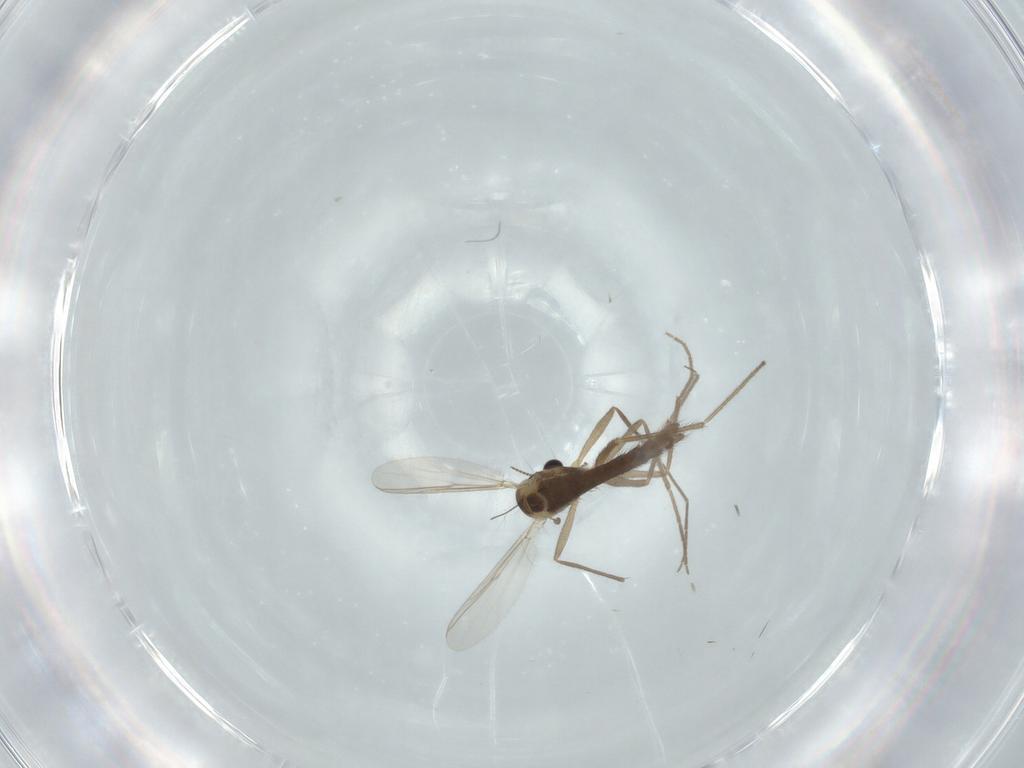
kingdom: Animalia
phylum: Arthropoda
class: Insecta
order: Diptera
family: Chironomidae
